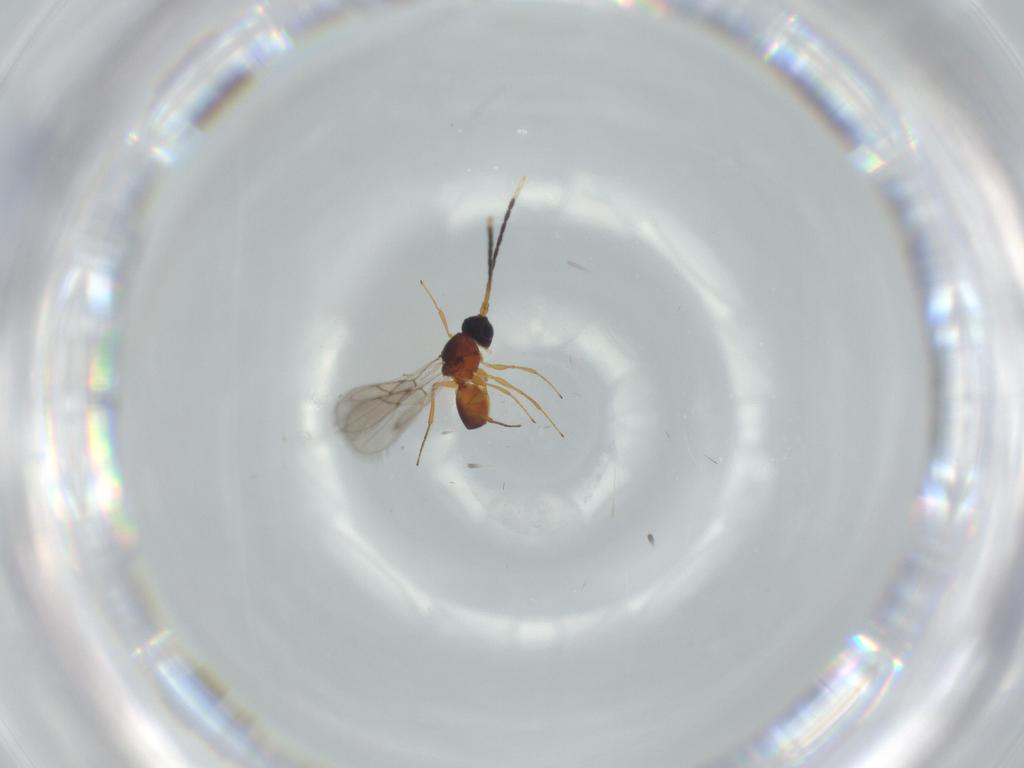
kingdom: Animalia
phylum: Arthropoda
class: Insecta
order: Hymenoptera
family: Figitidae
